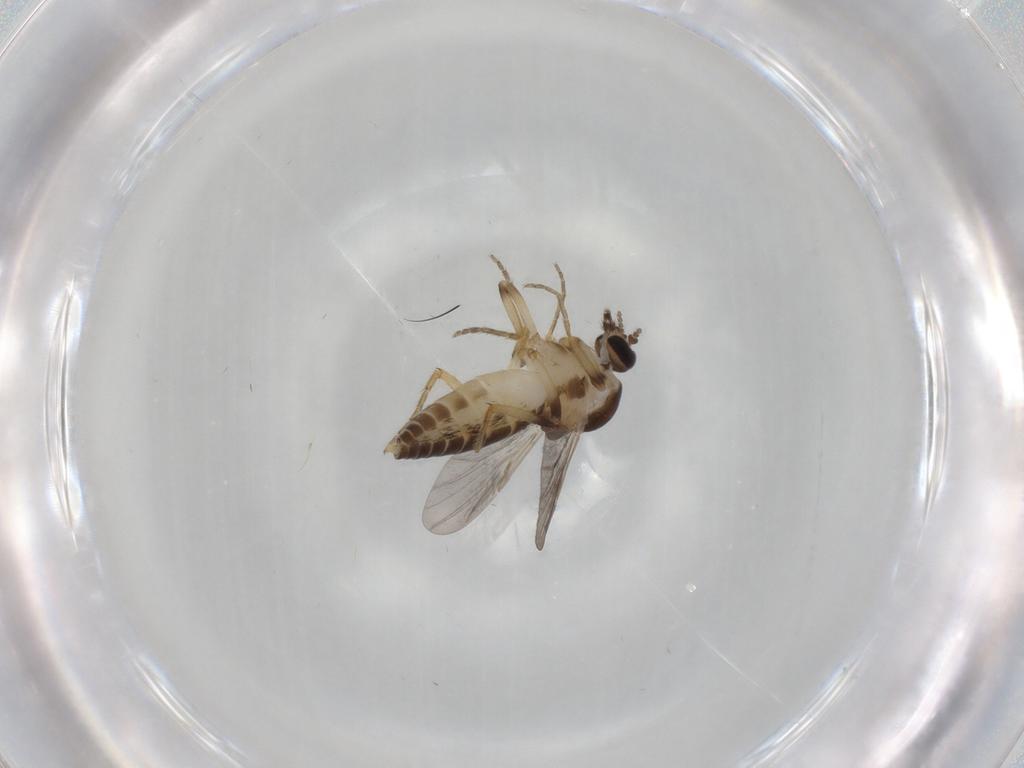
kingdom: Animalia
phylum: Arthropoda
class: Insecta
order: Diptera
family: Ceratopogonidae
